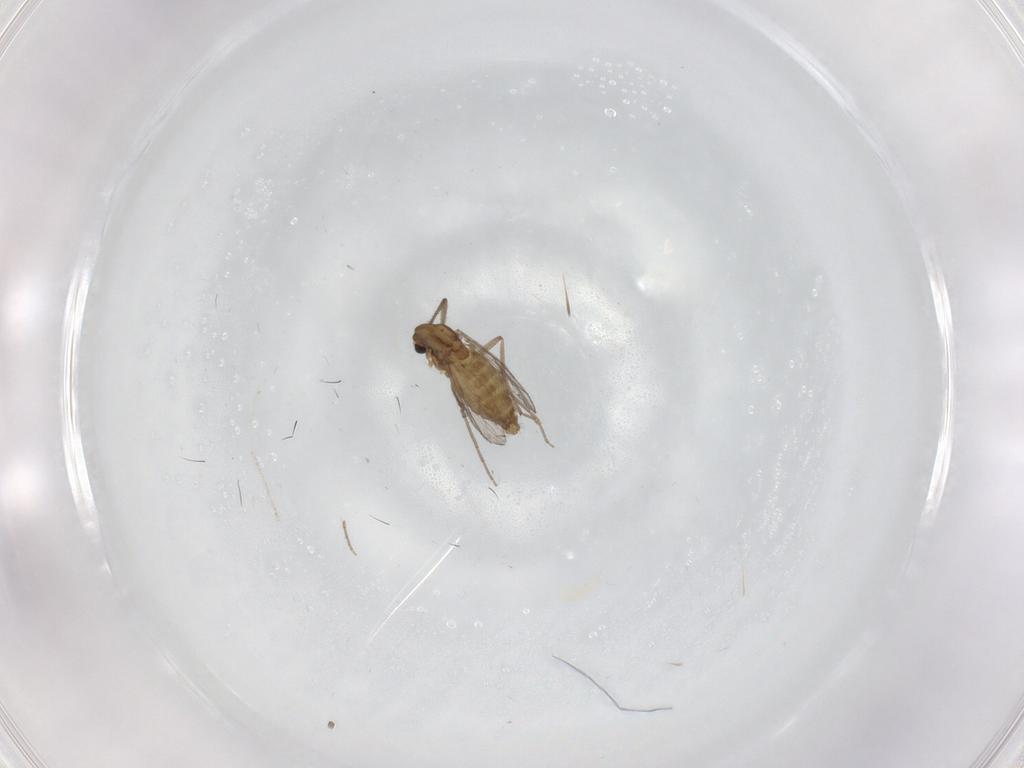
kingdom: Animalia
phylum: Arthropoda
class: Insecta
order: Diptera
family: Chironomidae
